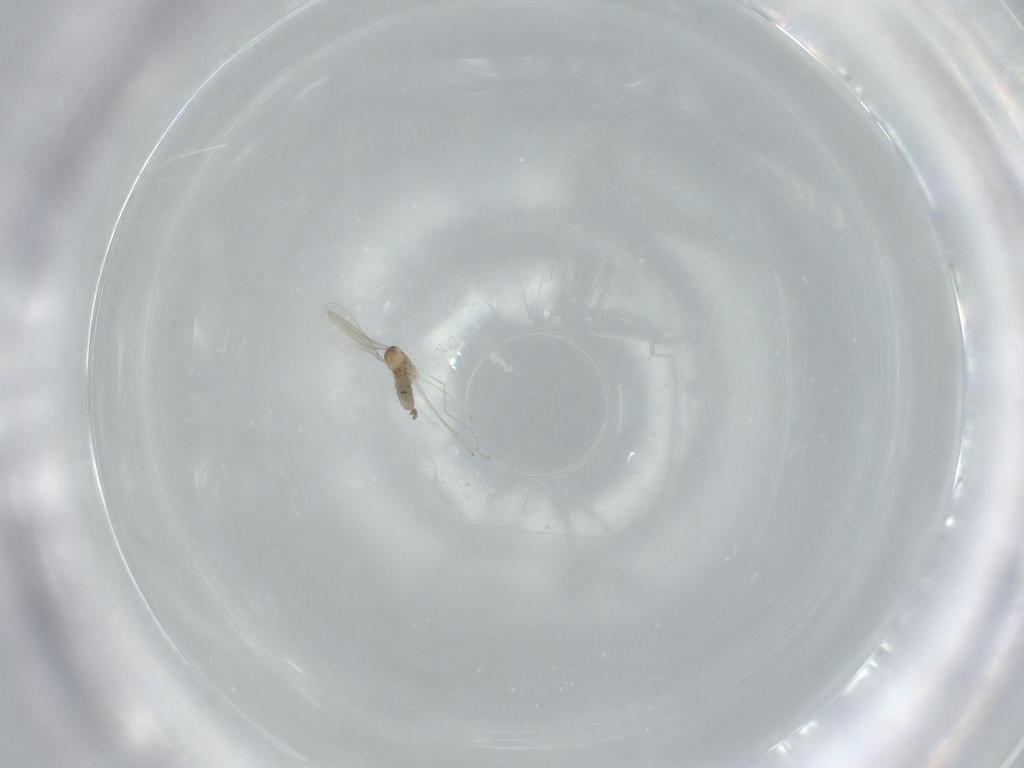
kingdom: Animalia
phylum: Arthropoda
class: Insecta
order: Diptera
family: Cecidomyiidae
